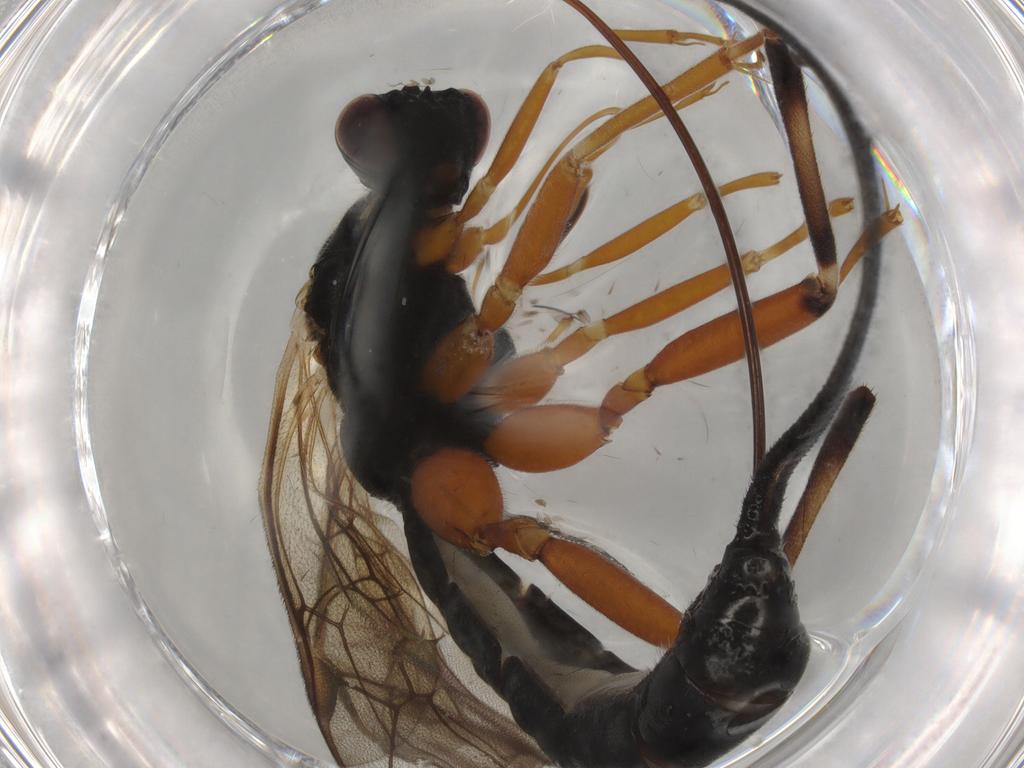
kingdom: Animalia
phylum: Arthropoda
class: Insecta
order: Hymenoptera
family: Ichneumonidae
